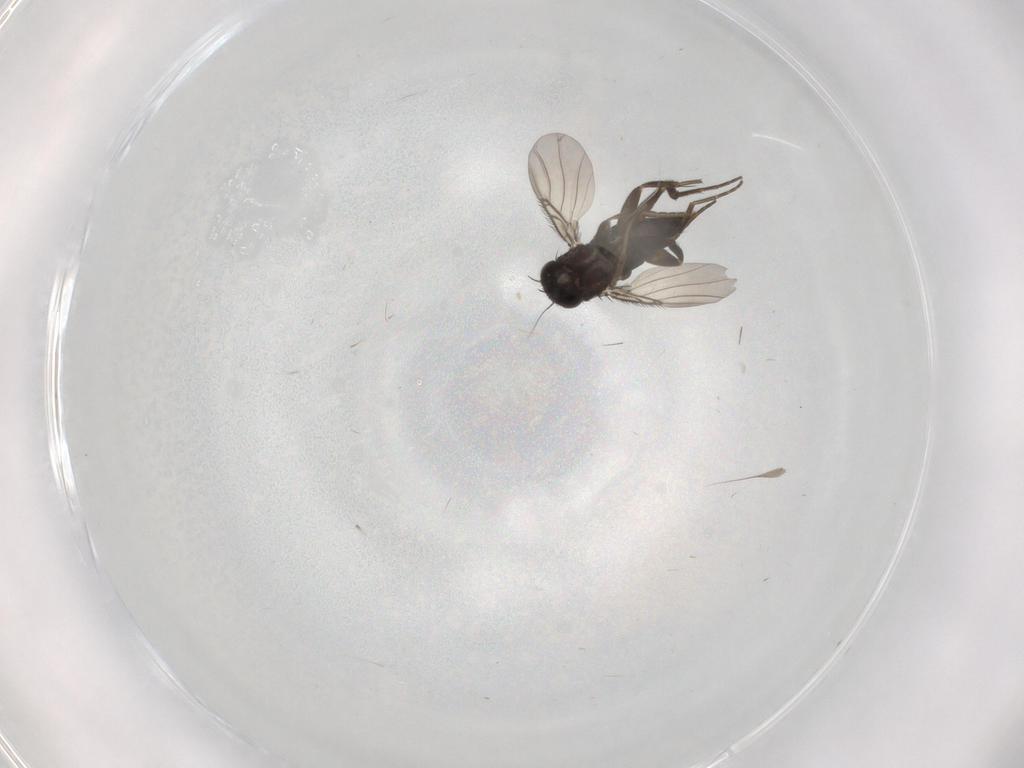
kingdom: Animalia
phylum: Arthropoda
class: Insecta
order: Diptera
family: Phoridae
